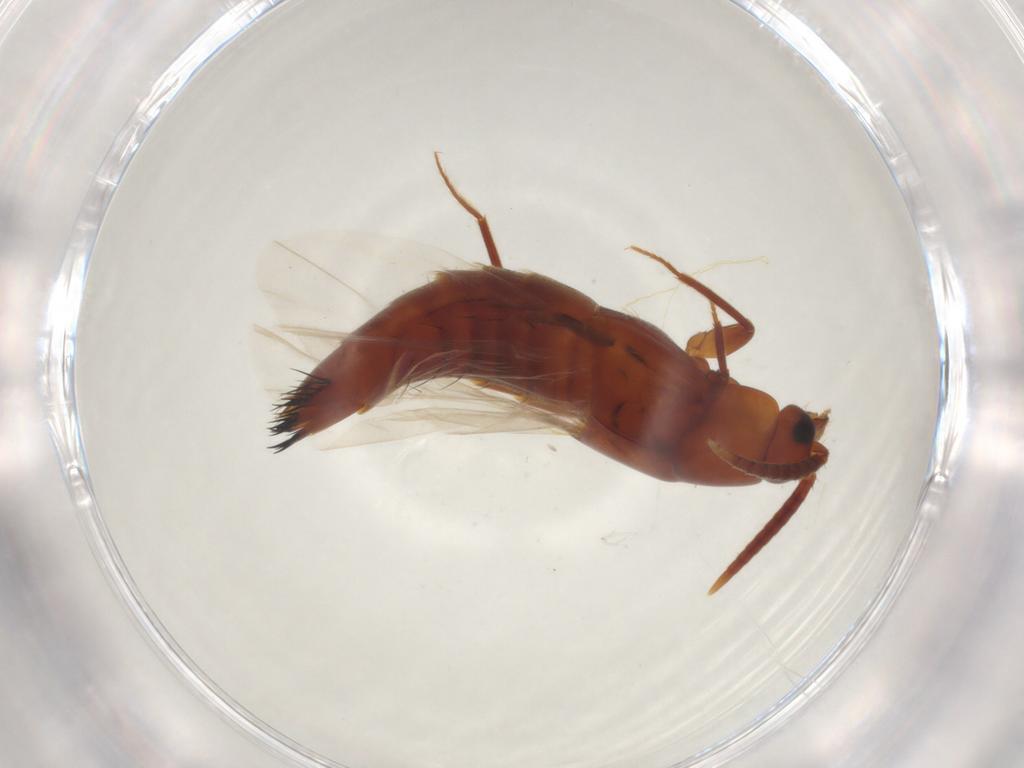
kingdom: Animalia
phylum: Arthropoda
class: Insecta
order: Coleoptera
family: Staphylinidae
